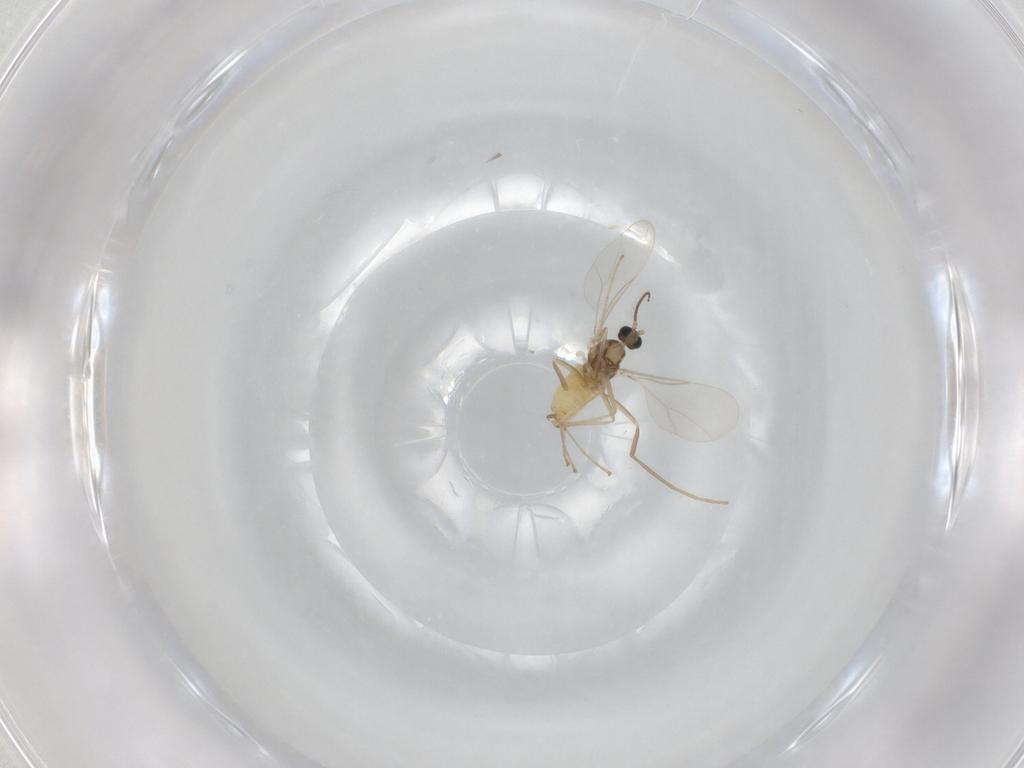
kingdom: Animalia
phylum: Arthropoda
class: Insecta
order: Diptera
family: Cecidomyiidae
